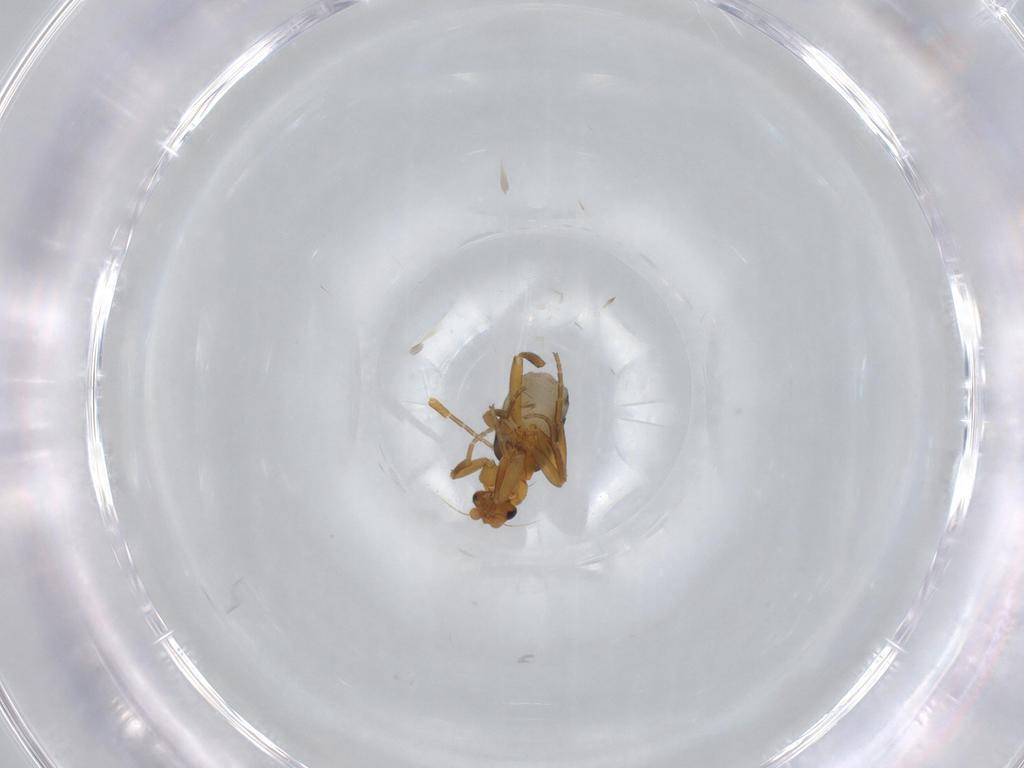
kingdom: Animalia
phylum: Arthropoda
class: Insecta
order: Diptera
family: Phoridae
